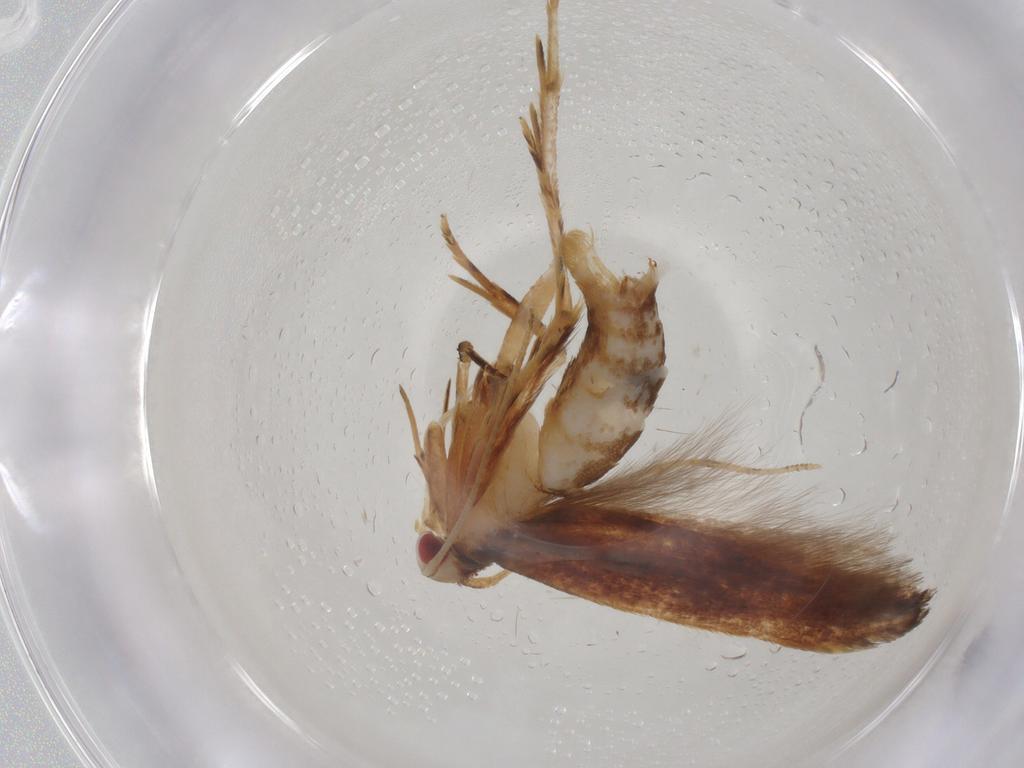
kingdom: Animalia
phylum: Arthropoda
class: Insecta
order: Lepidoptera
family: Cosmopterigidae
